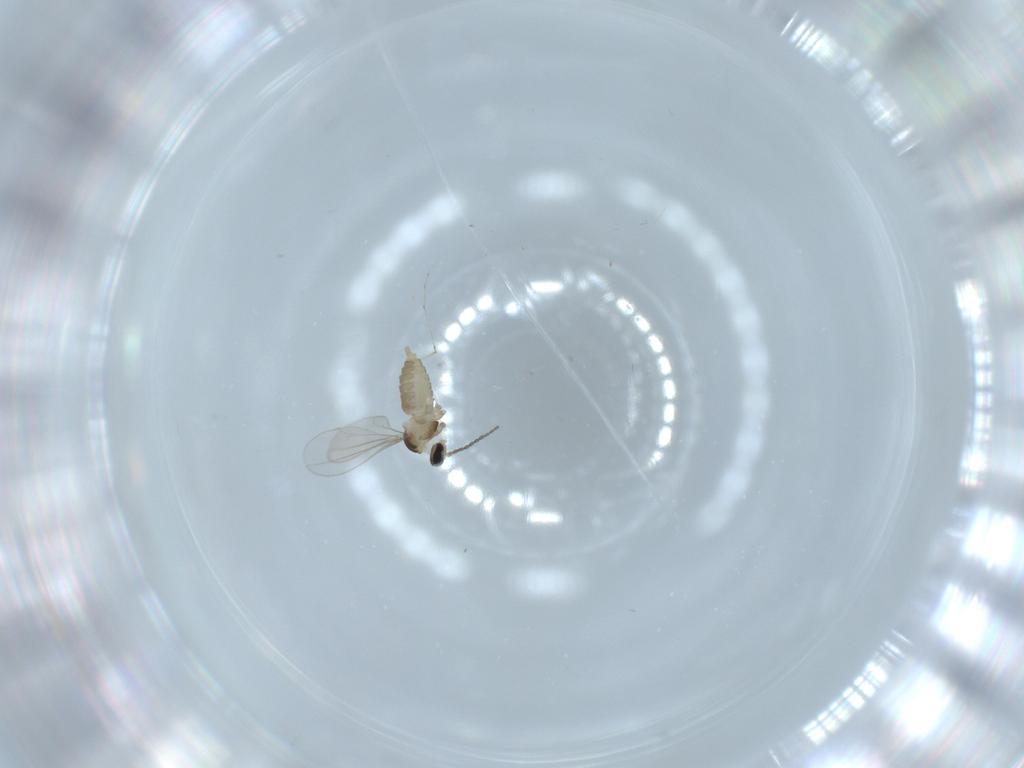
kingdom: Animalia
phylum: Arthropoda
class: Insecta
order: Diptera
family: Cecidomyiidae
